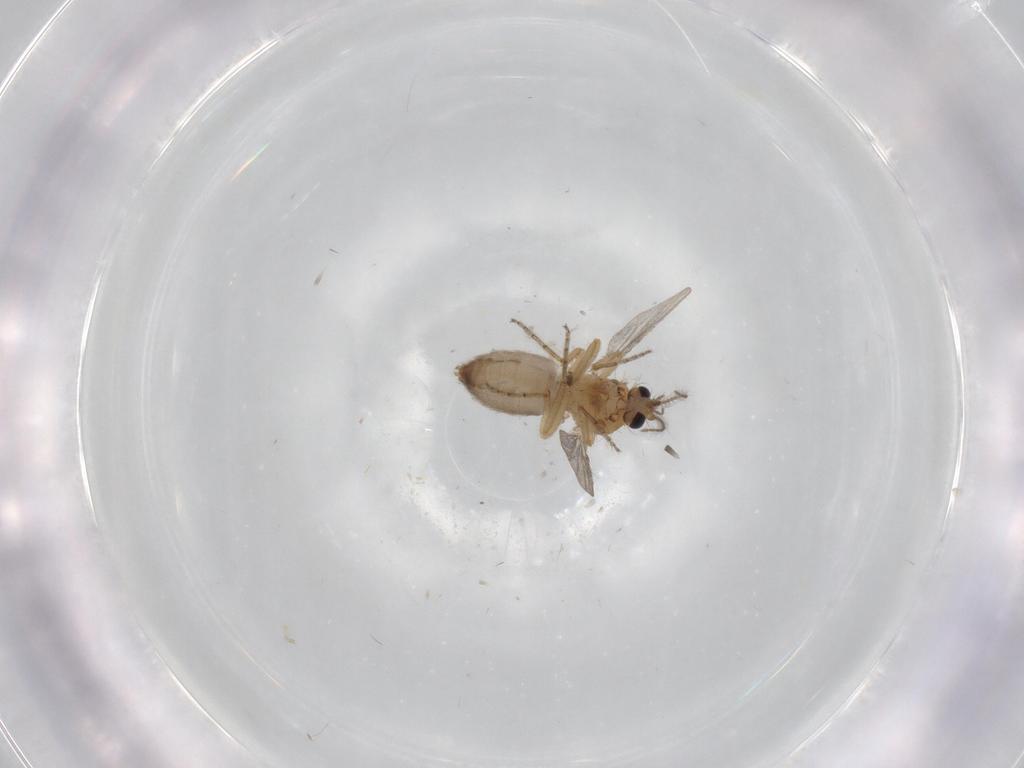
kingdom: Animalia
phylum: Arthropoda
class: Insecta
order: Diptera
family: Ceratopogonidae
